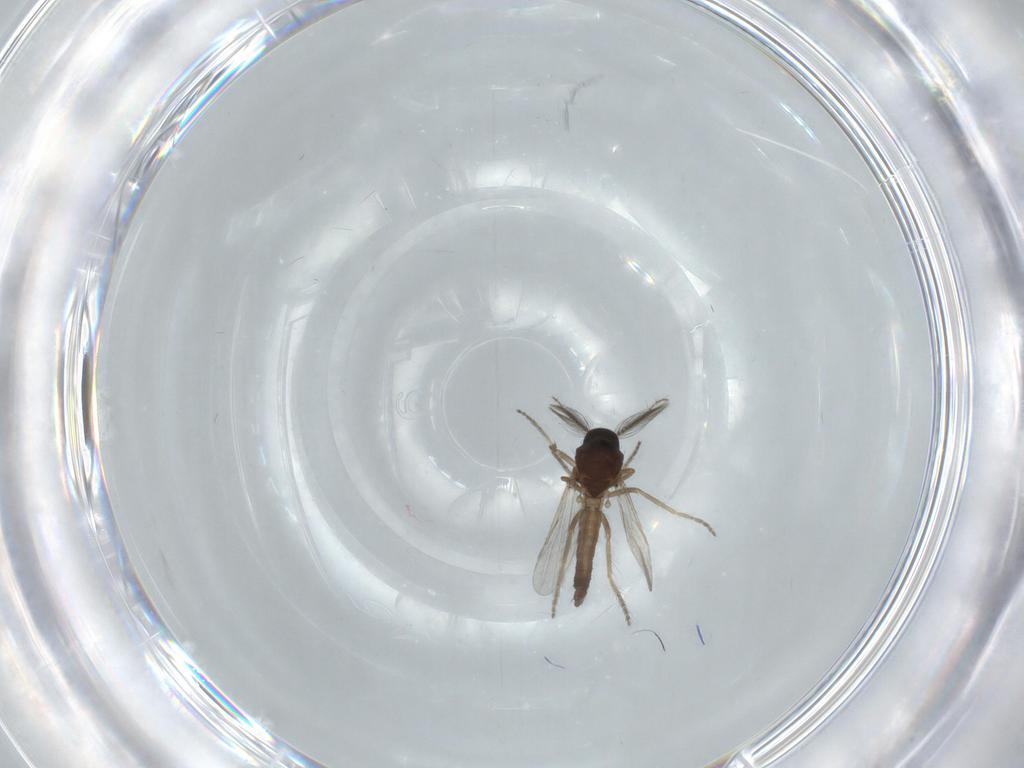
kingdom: Animalia
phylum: Arthropoda
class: Insecta
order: Diptera
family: Ceratopogonidae
